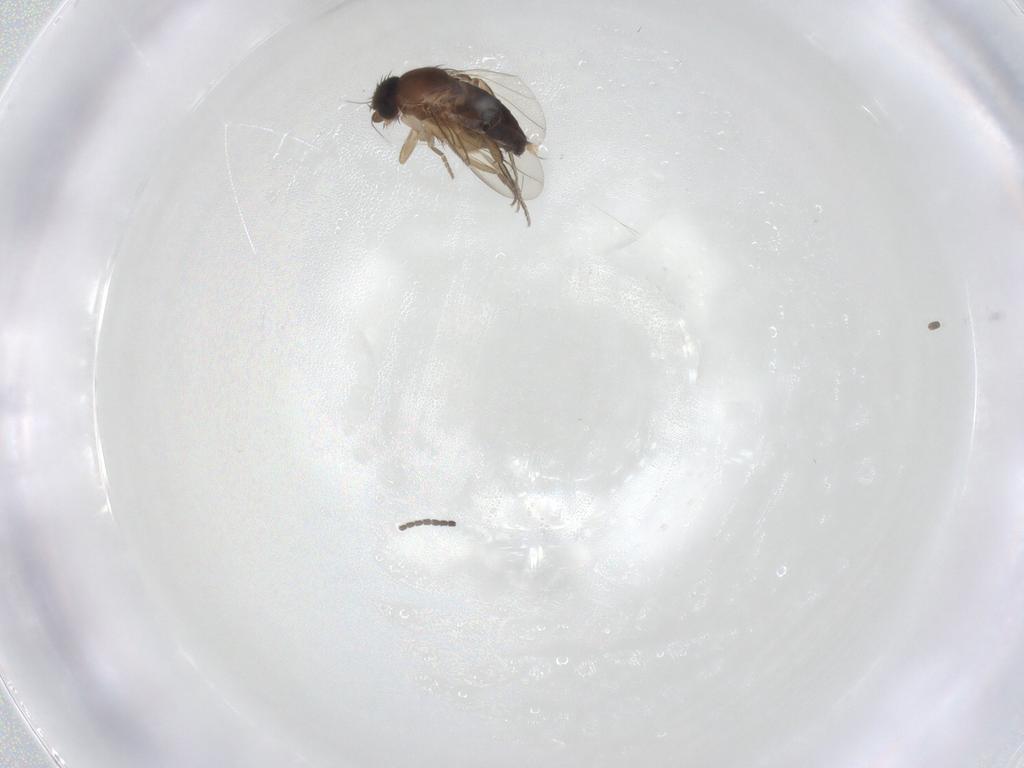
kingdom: Animalia
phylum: Arthropoda
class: Insecta
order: Diptera
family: Phoridae
